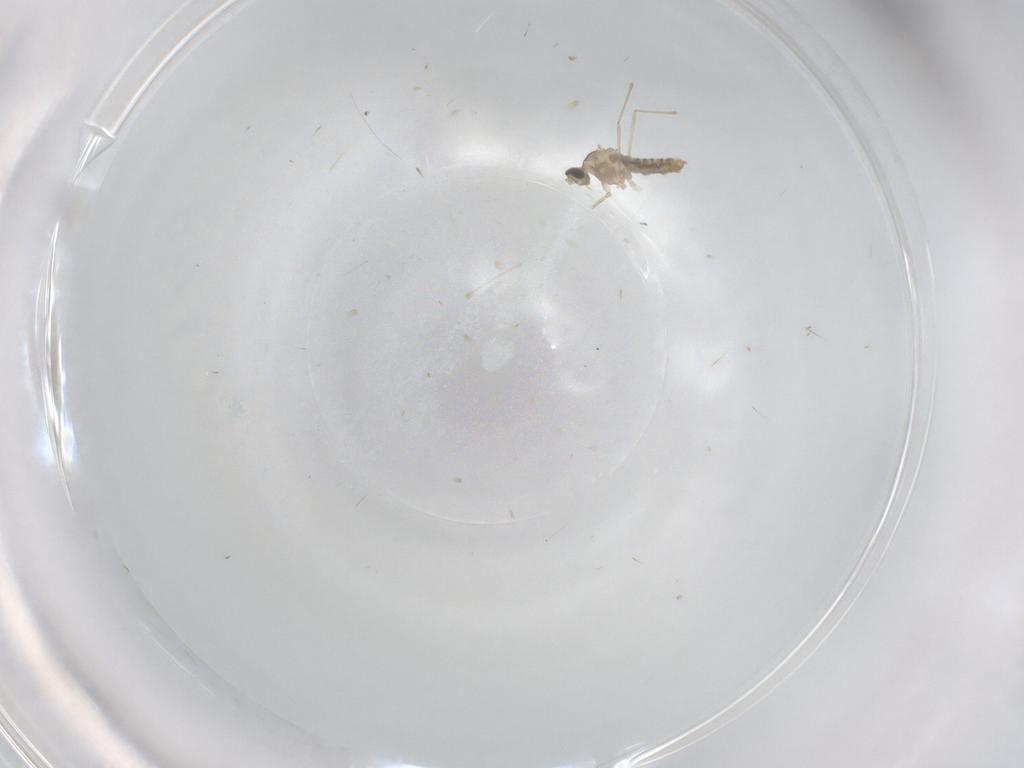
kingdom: Animalia
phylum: Arthropoda
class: Insecta
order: Diptera
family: Cecidomyiidae
